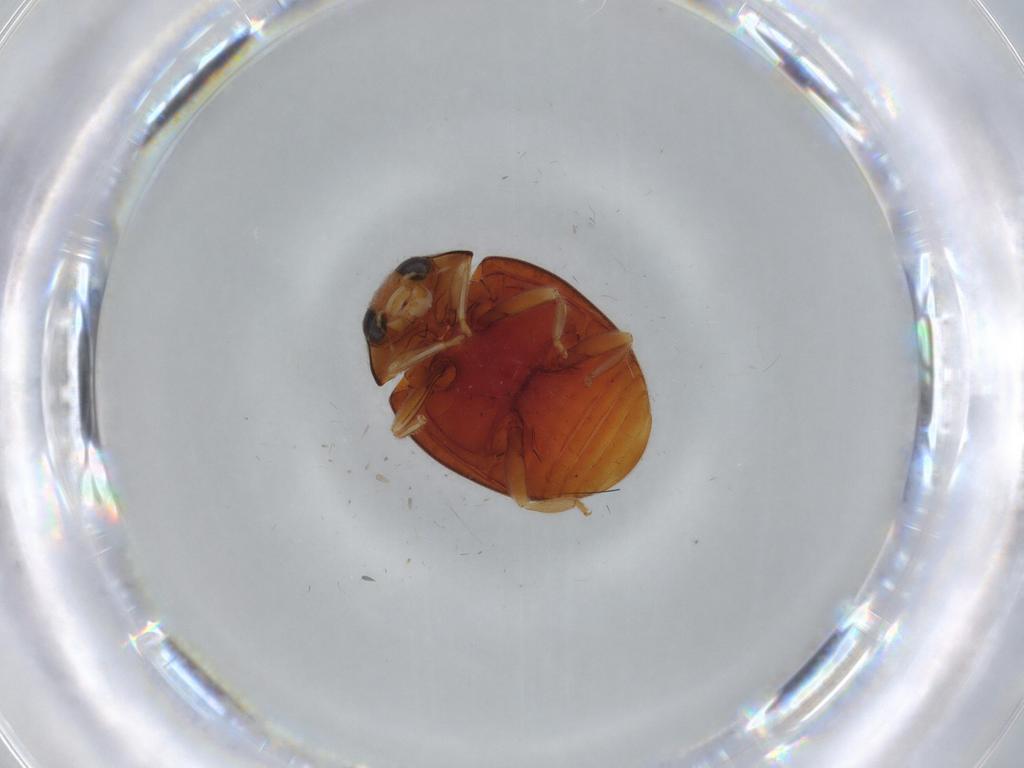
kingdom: Animalia
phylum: Arthropoda
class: Insecta
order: Coleoptera
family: Coccinellidae
